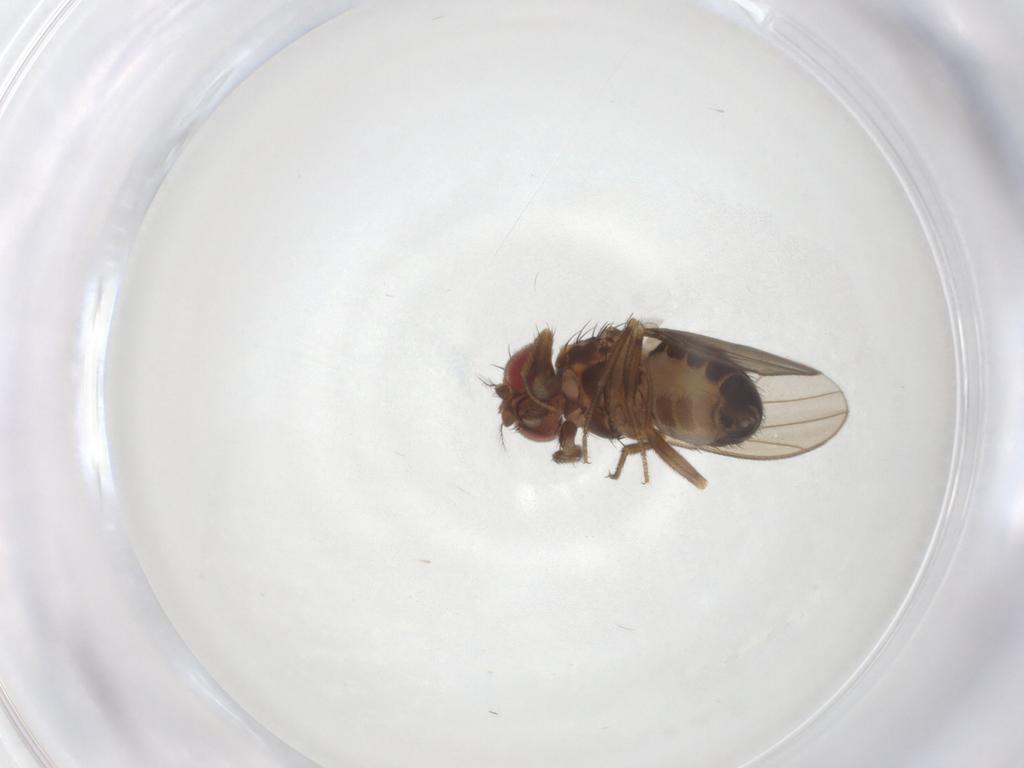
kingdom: Animalia
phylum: Arthropoda
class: Insecta
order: Diptera
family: Drosophilidae
